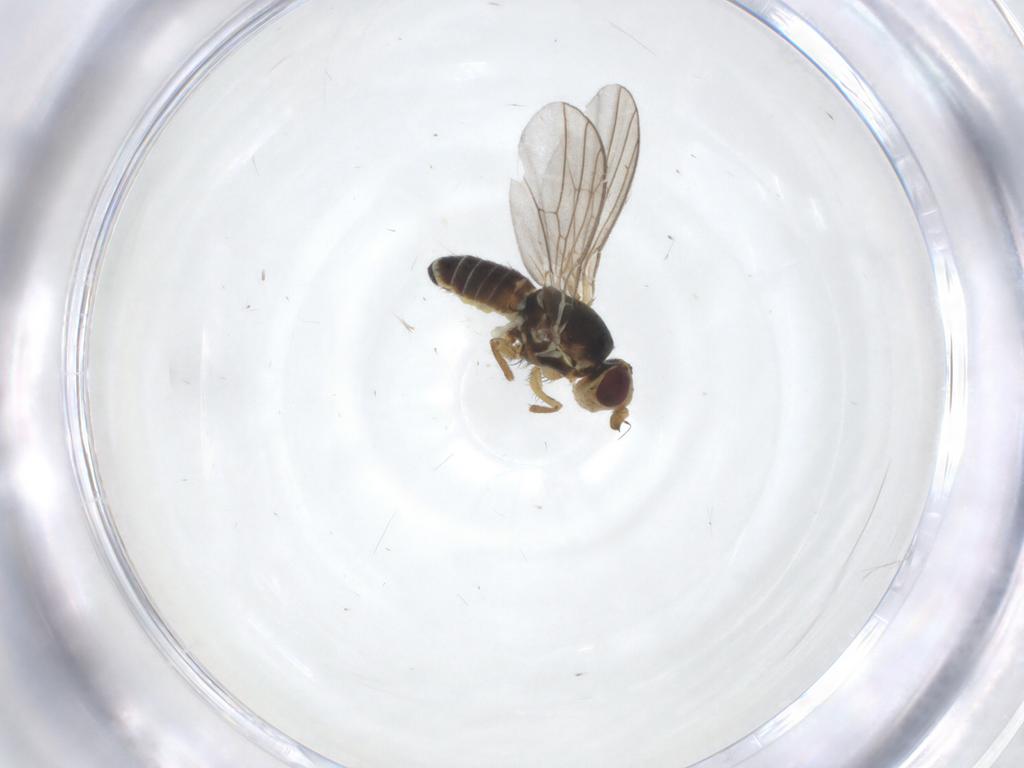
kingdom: Animalia
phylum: Arthropoda
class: Insecta
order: Diptera
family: Agromyzidae
